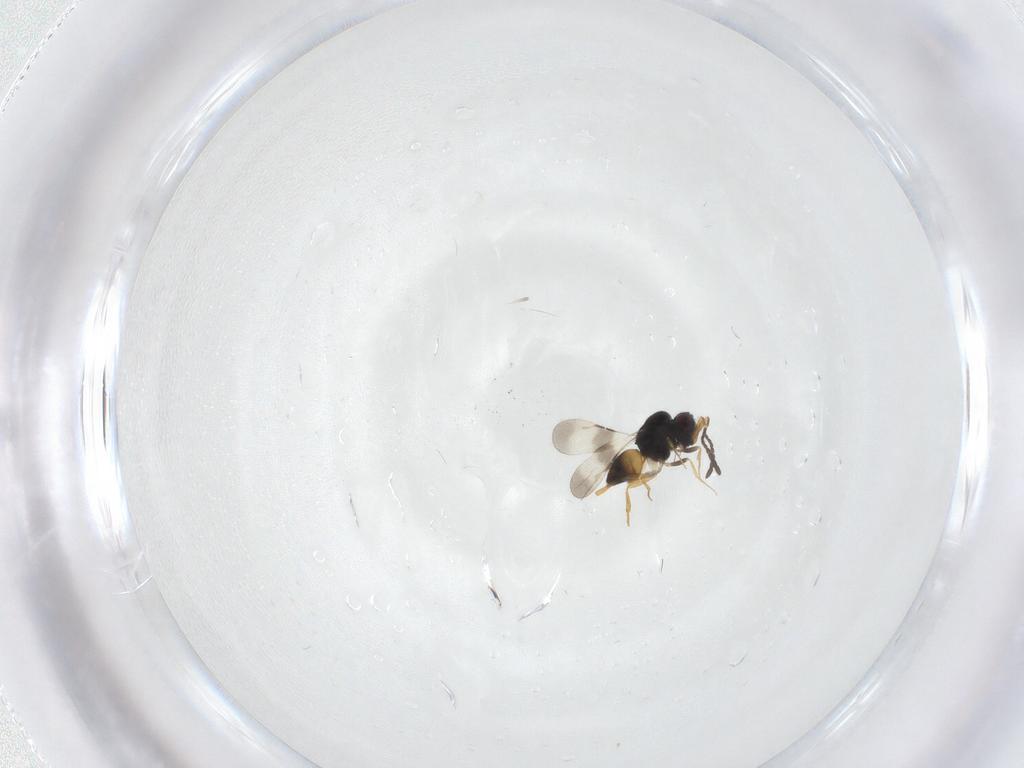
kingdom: Animalia
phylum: Arthropoda
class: Insecta
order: Hymenoptera
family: Ceraphronidae
